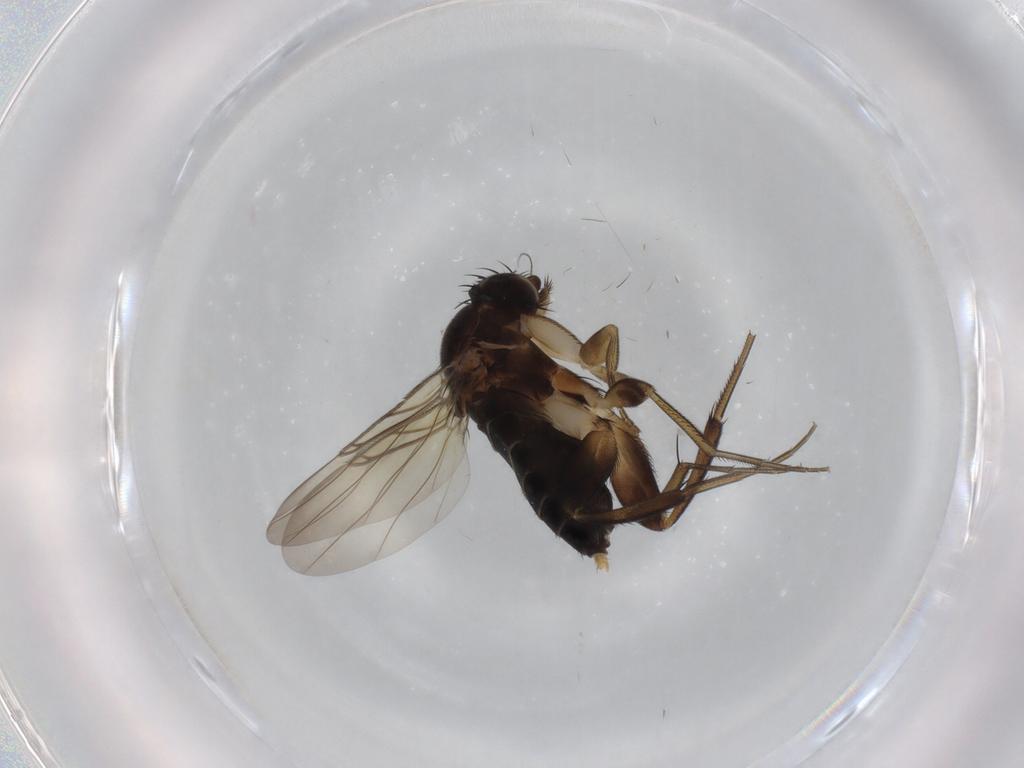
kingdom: Animalia
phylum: Arthropoda
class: Insecta
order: Diptera
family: Phoridae
